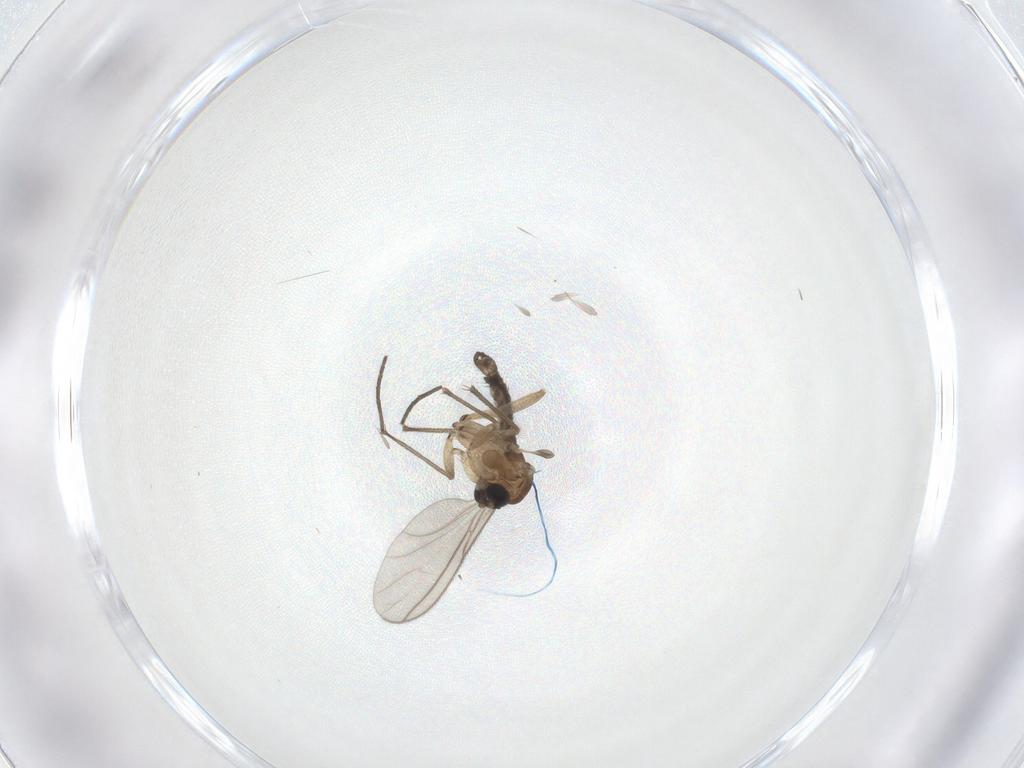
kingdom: Animalia
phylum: Arthropoda
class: Insecta
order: Diptera
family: Sciaridae
